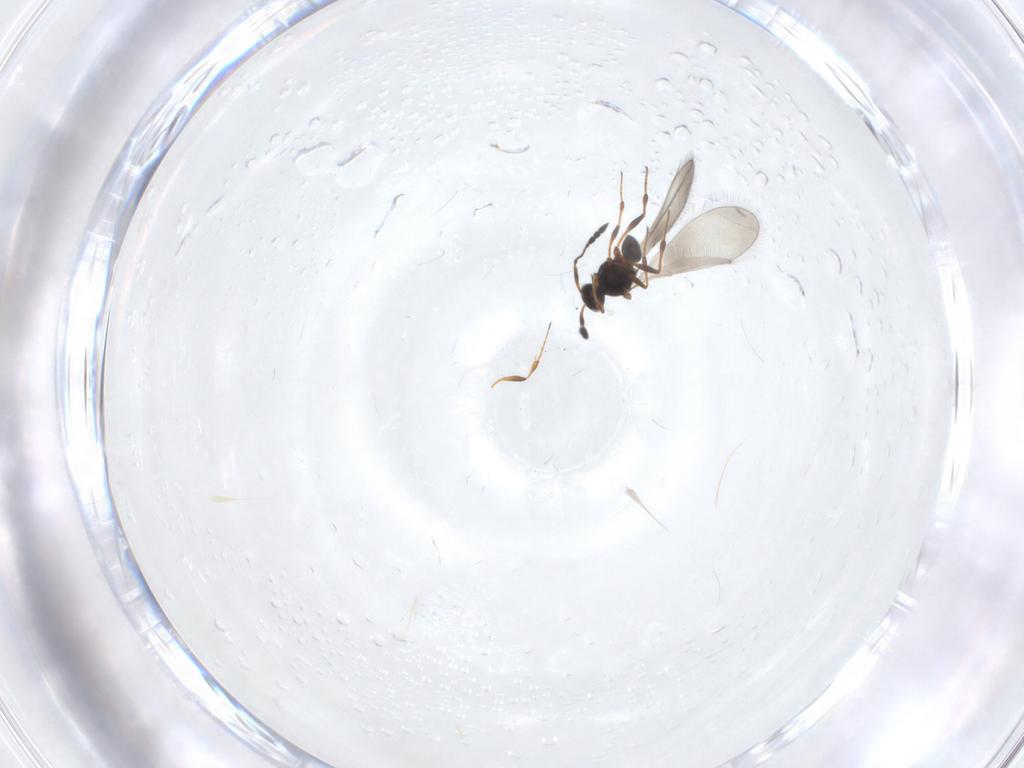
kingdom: Animalia
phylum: Arthropoda
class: Insecta
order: Hymenoptera
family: Platygastridae
